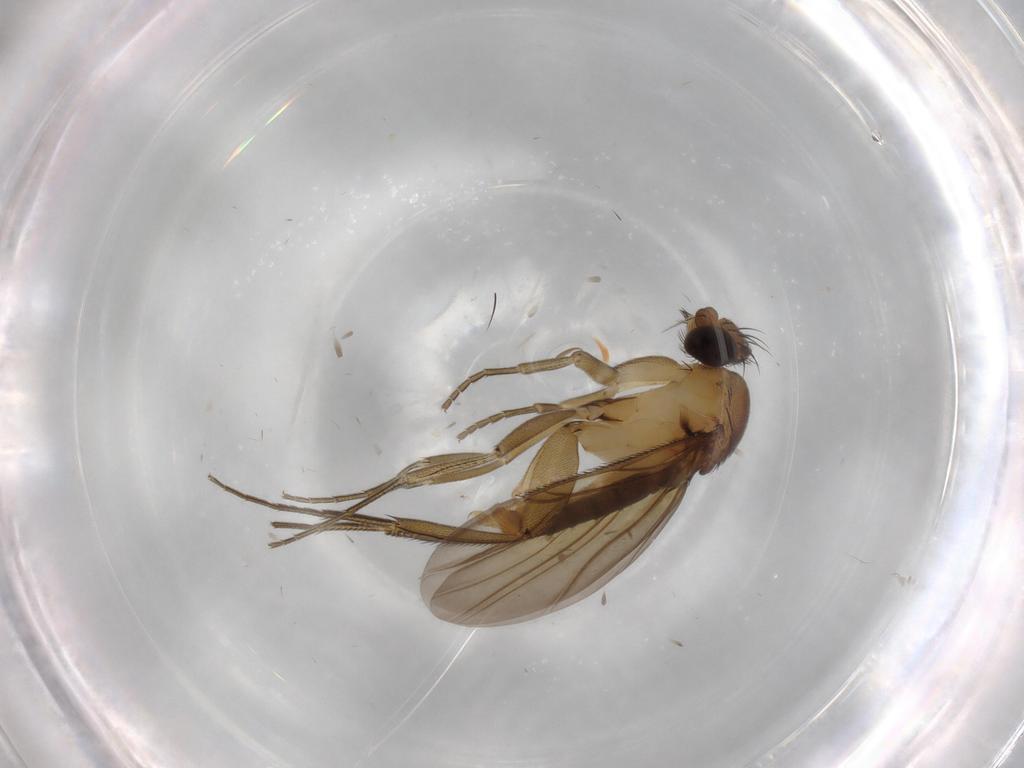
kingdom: Animalia
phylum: Arthropoda
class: Insecta
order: Diptera
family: Phoridae
